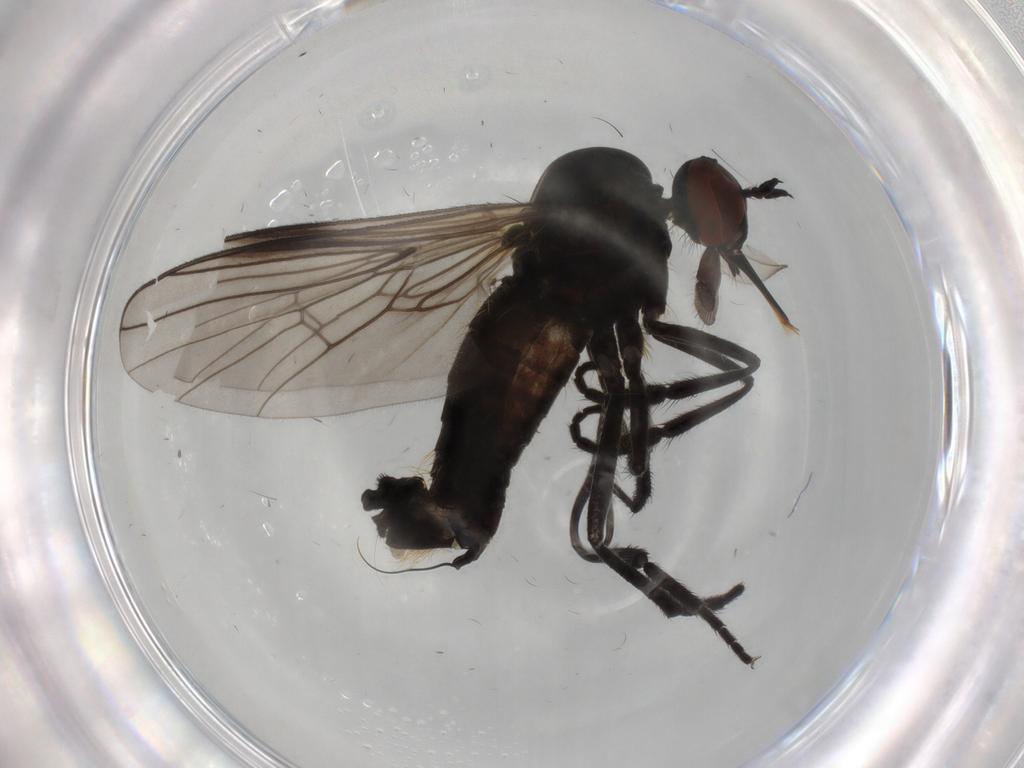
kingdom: Animalia
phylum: Arthropoda
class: Insecta
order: Diptera
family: Empididae
